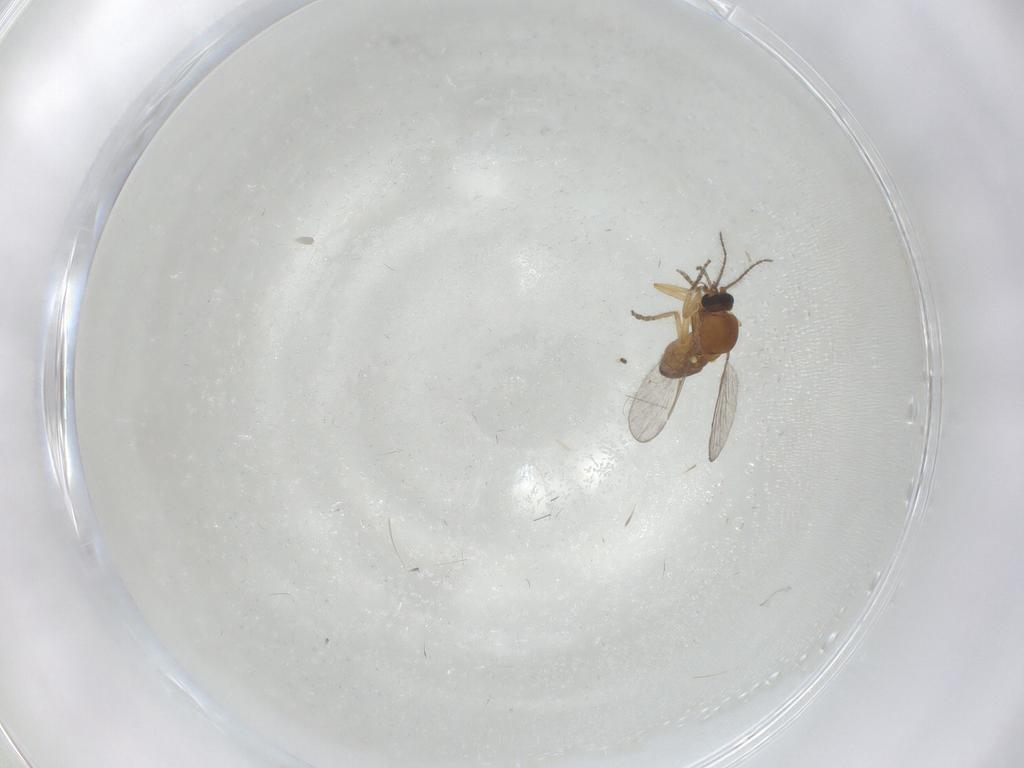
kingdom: Animalia
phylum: Arthropoda
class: Insecta
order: Diptera
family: Ceratopogonidae
